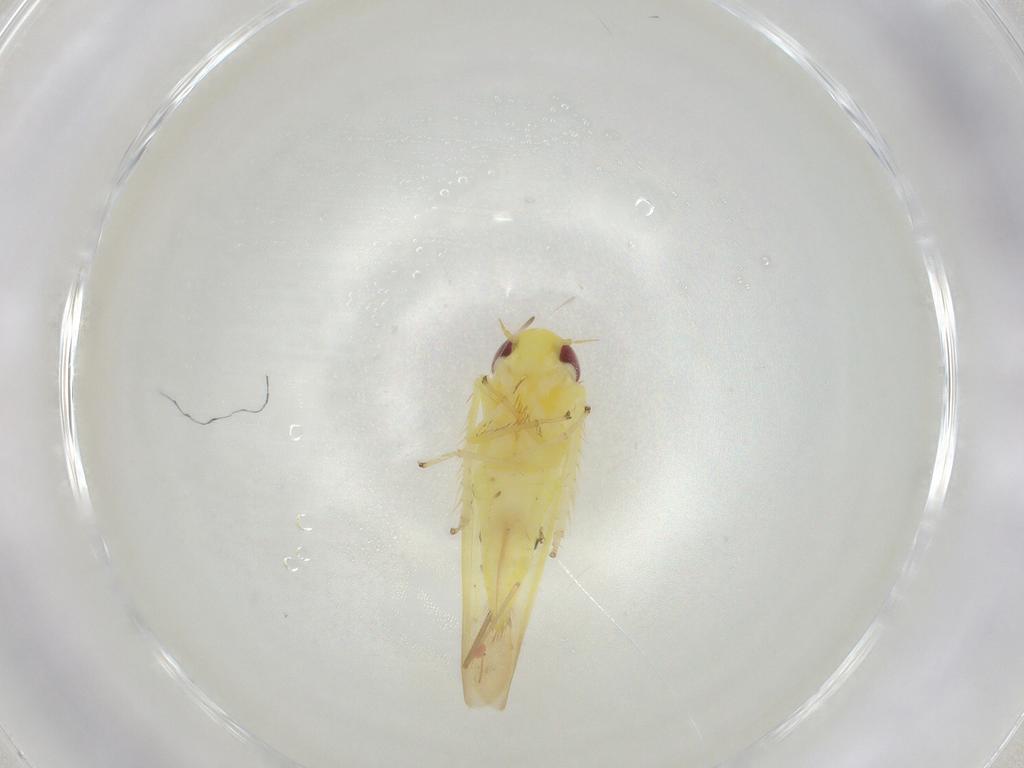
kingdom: Animalia
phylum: Arthropoda
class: Insecta
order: Hemiptera
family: Cicadellidae
